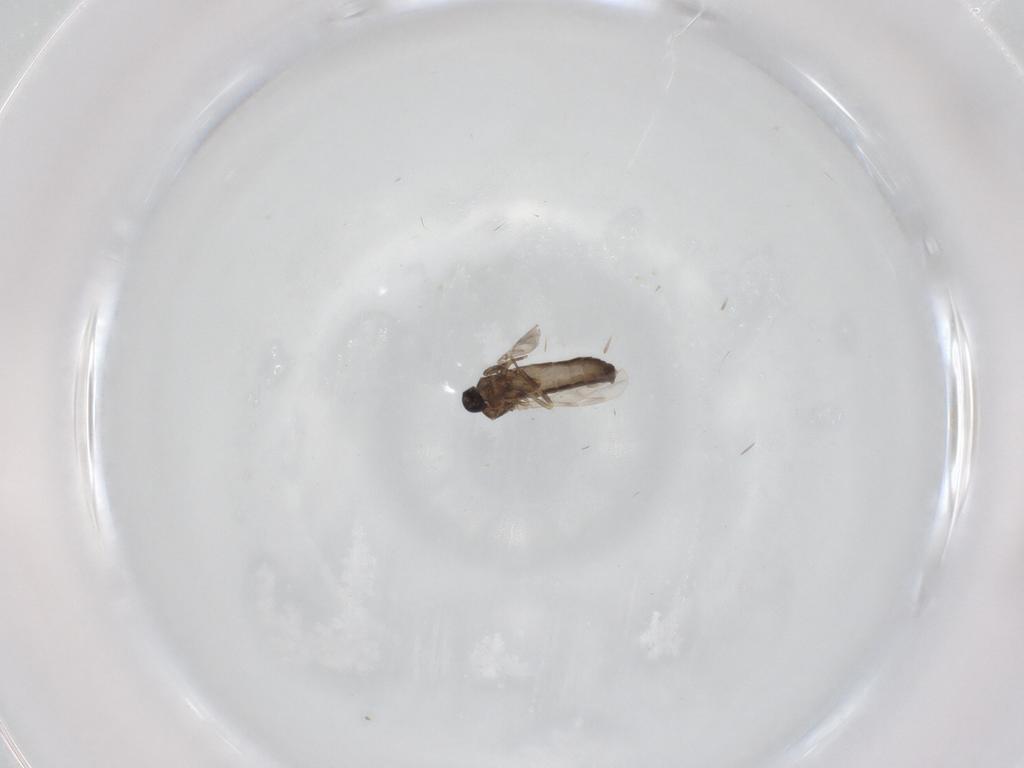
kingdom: Animalia
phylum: Arthropoda
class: Insecta
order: Diptera
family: Ceratopogonidae
